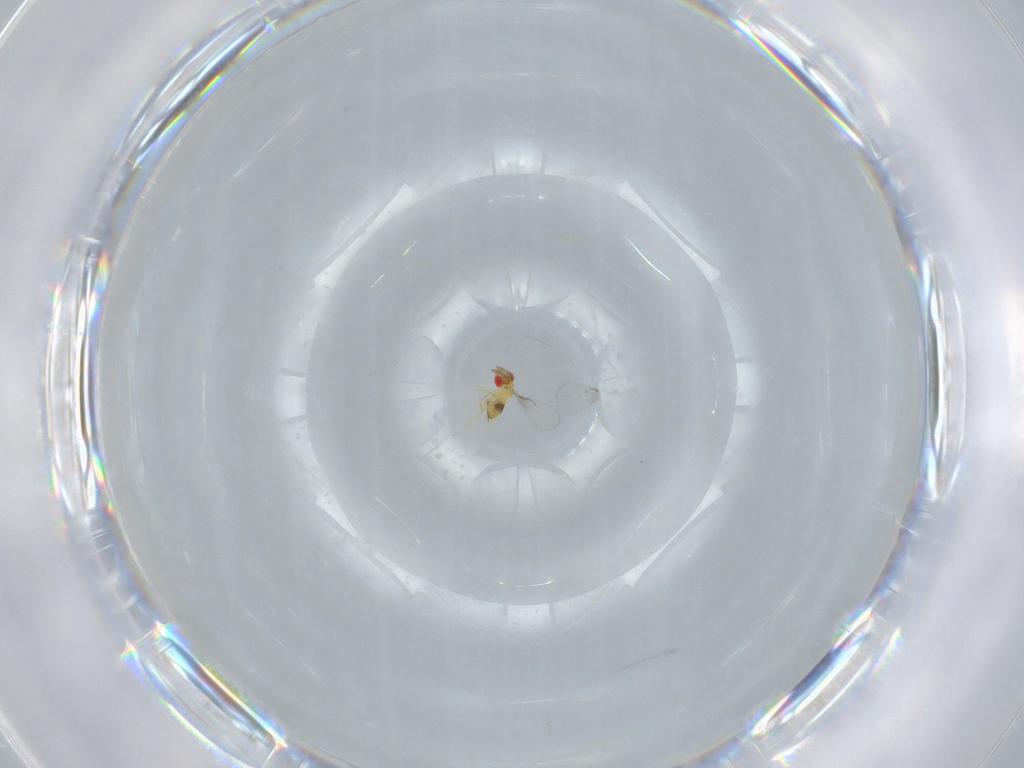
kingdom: Animalia
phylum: Arthropoda
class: Insecta
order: Hymenoptera
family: Trichogrammatidae
